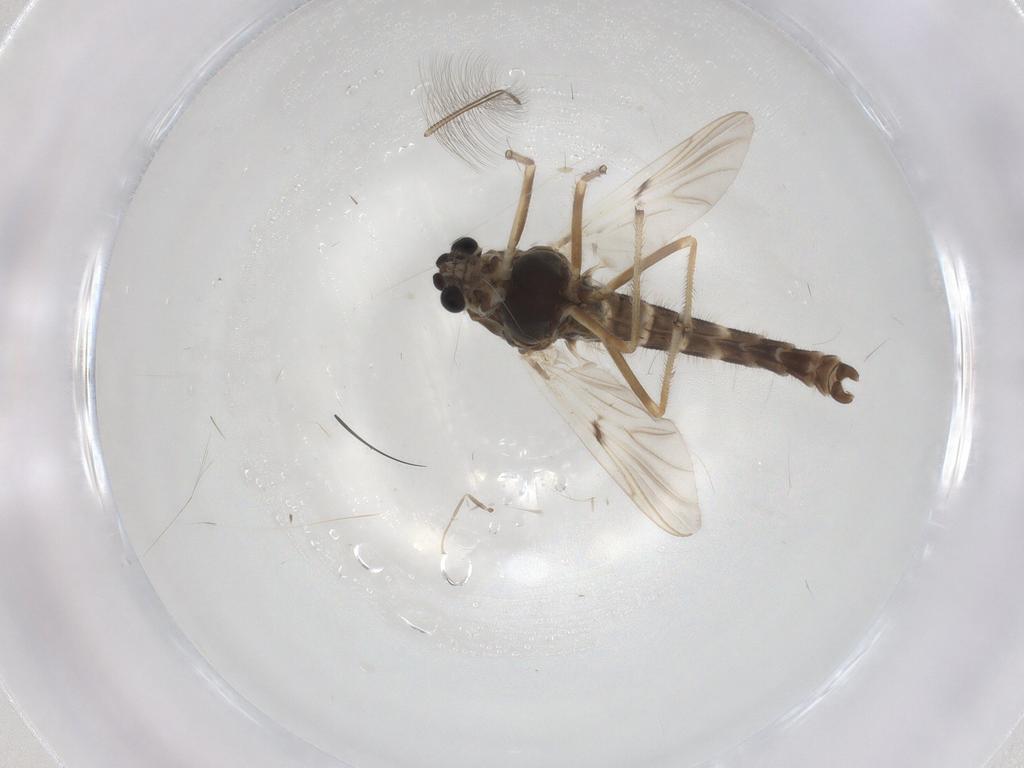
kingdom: Animalia
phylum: Arthropoda
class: Insecta
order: Diptera
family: Chironomidae
